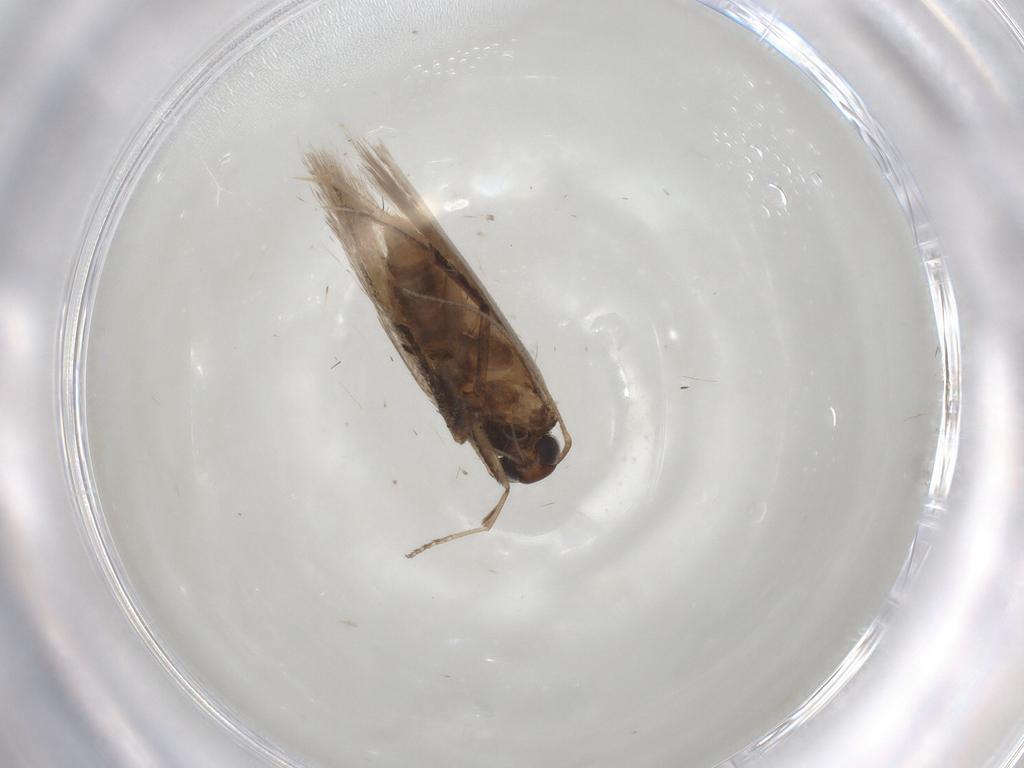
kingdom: Animalia
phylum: Arthropoda
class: Insecta
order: Lepidoptera
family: Gelechiidae
